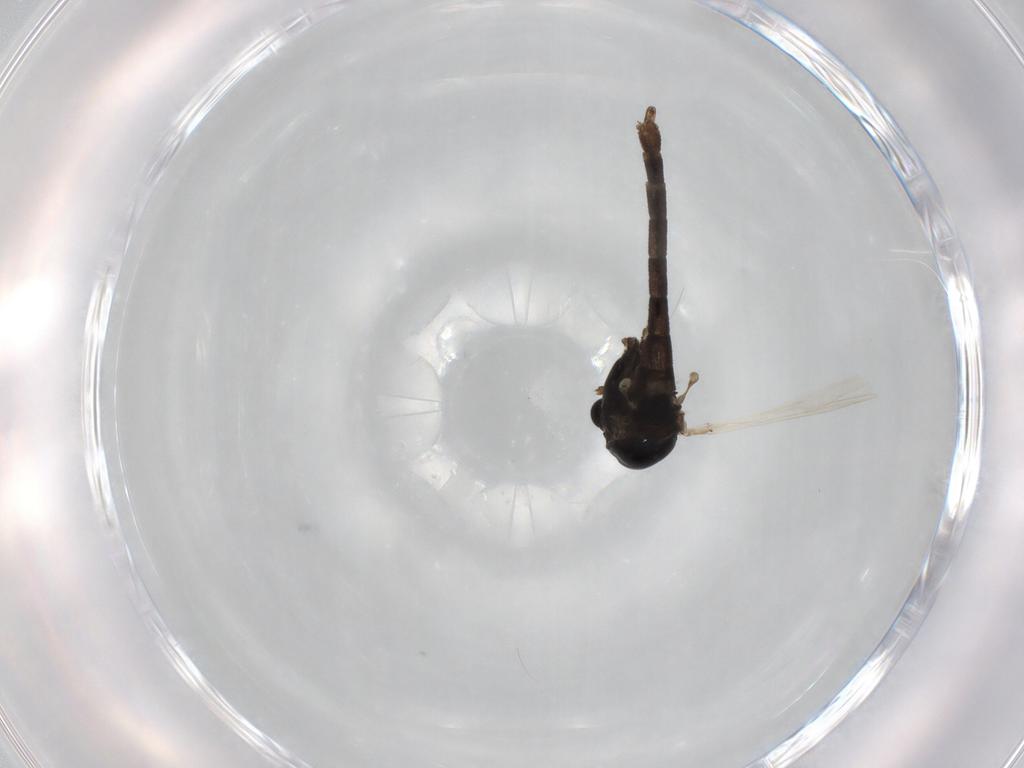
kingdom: Animalia
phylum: Arthropoda
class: Insecta
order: Diptera
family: Chironomidae
